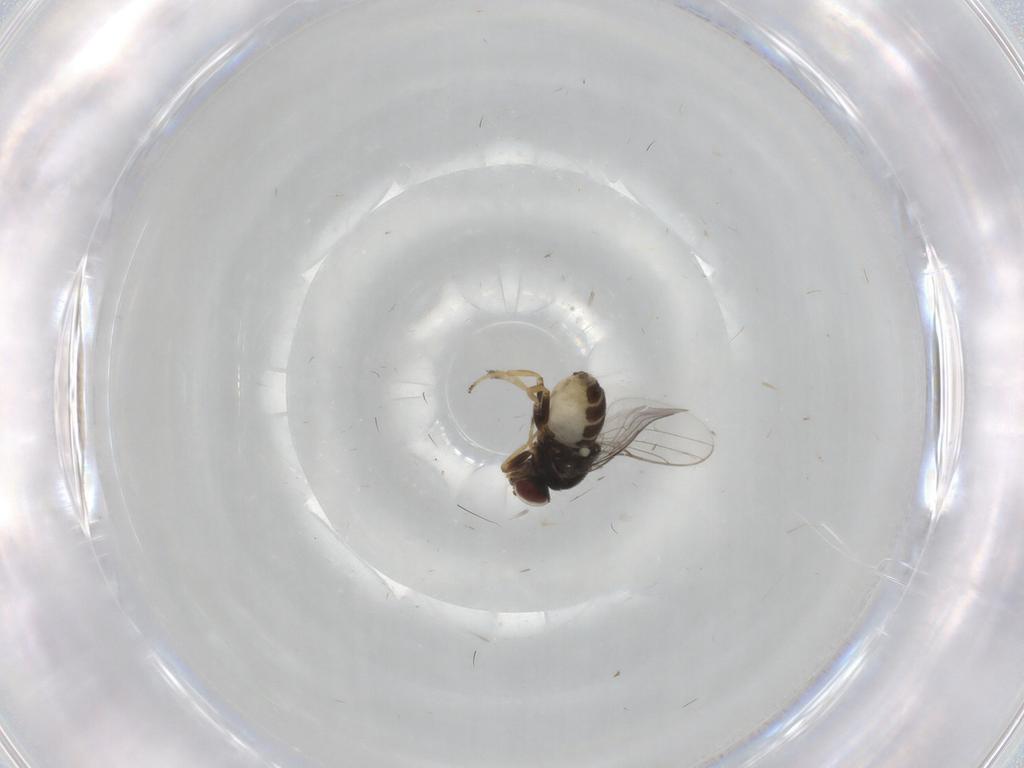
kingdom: Animalia
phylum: Arthropoda
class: Insecta
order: Diptera
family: Chloropidae
